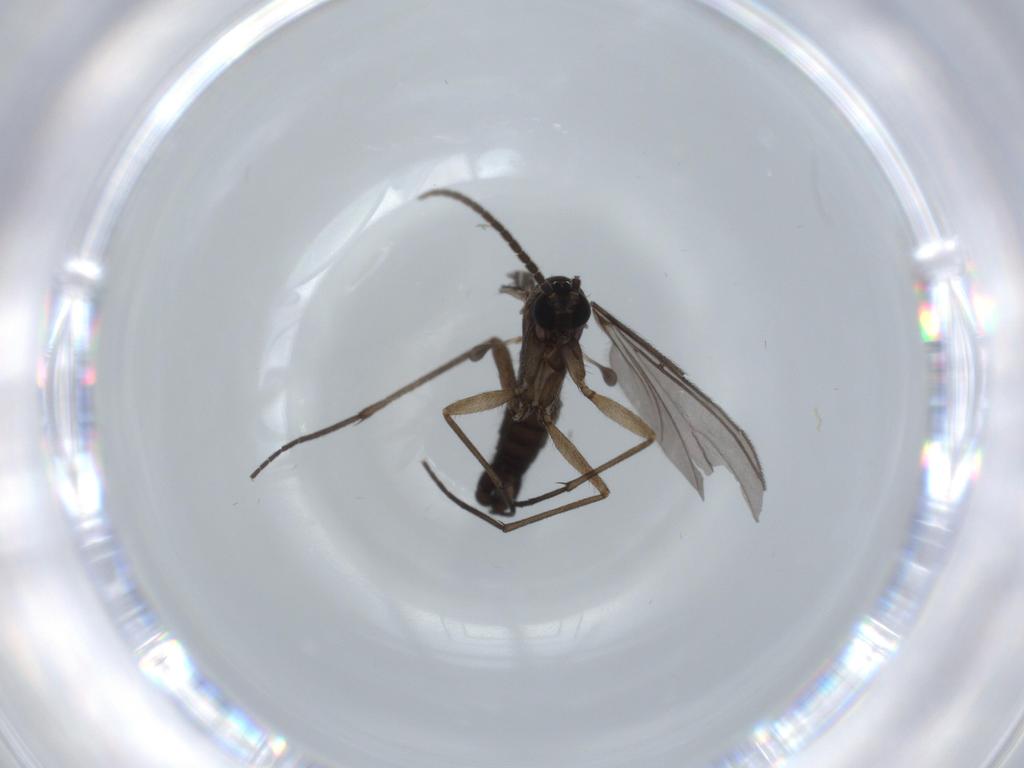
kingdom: Animalia
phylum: Arthropoda
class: Insecta
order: Diptera
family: Sciaridae
